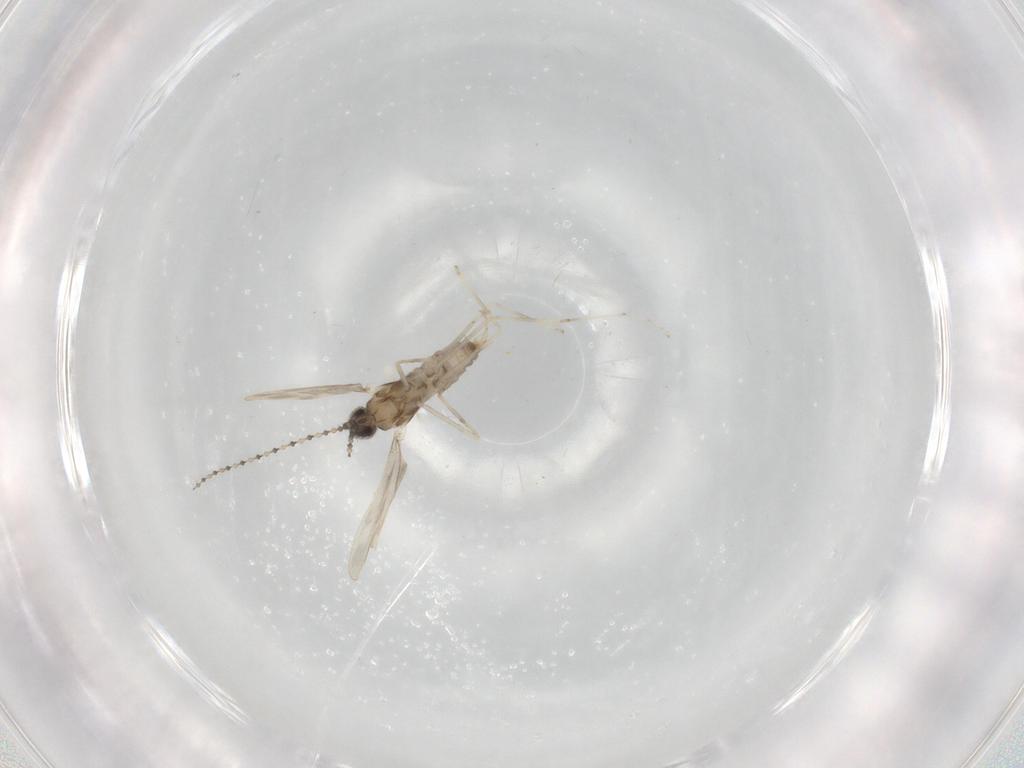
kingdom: Animalia
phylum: Arthropoda
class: Insecta
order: Diptera
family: Cecidomyiidae
